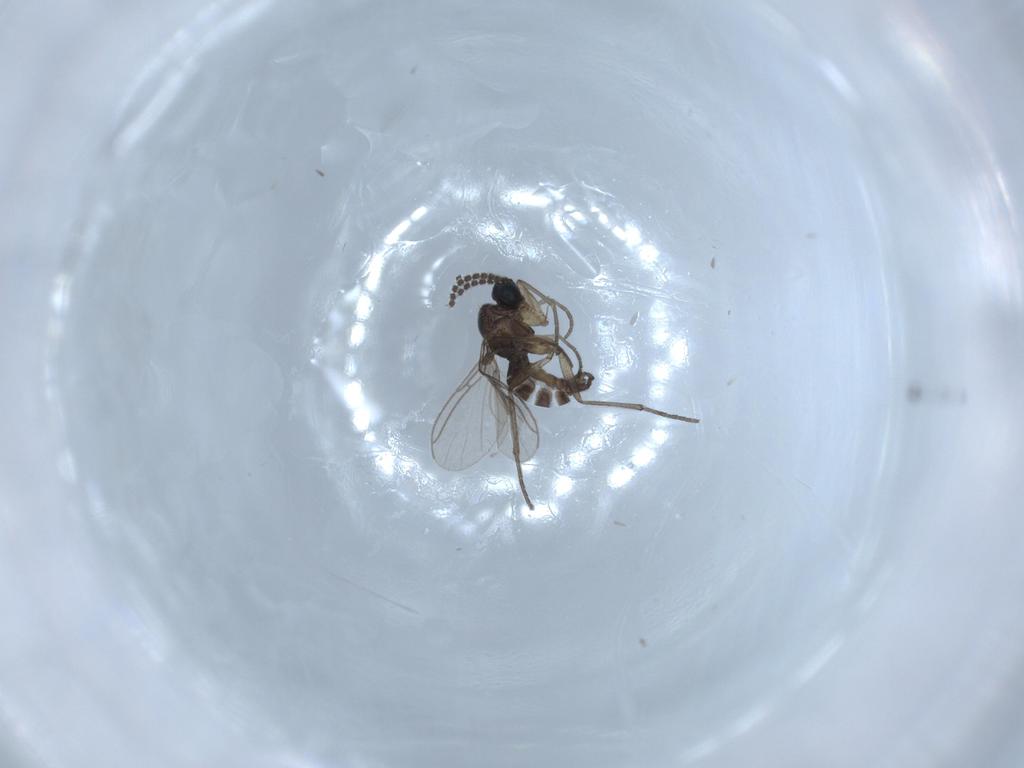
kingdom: Animalia
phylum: Arthropoda
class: Insecta
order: Diptera
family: Sciaridae
